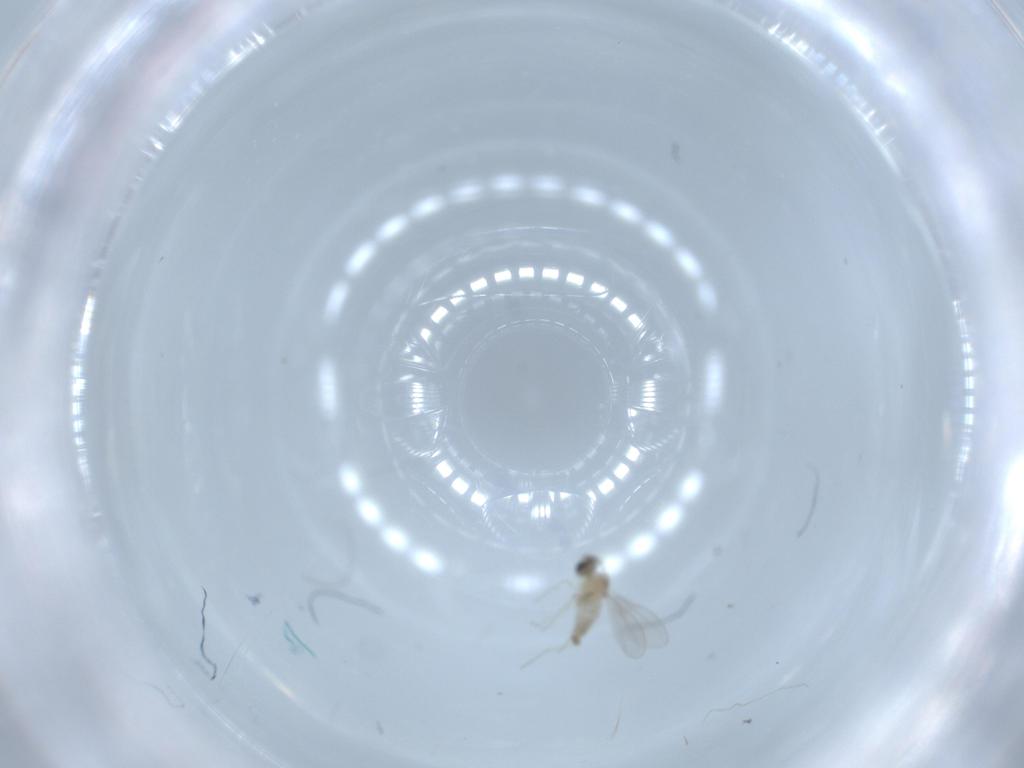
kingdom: Animalia
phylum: Arthropoda
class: Insecta
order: Diptera
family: Cecidomyiidae
